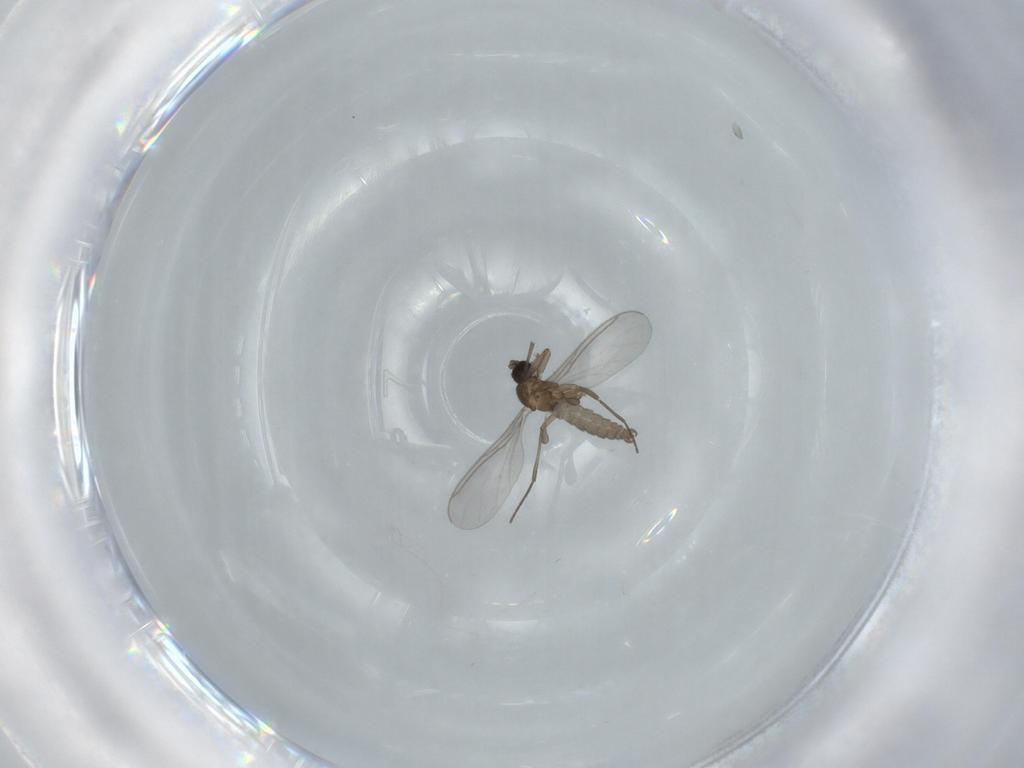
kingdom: Animalia
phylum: Arthropoda
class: Insecta
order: Diptera
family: Sciaridae
